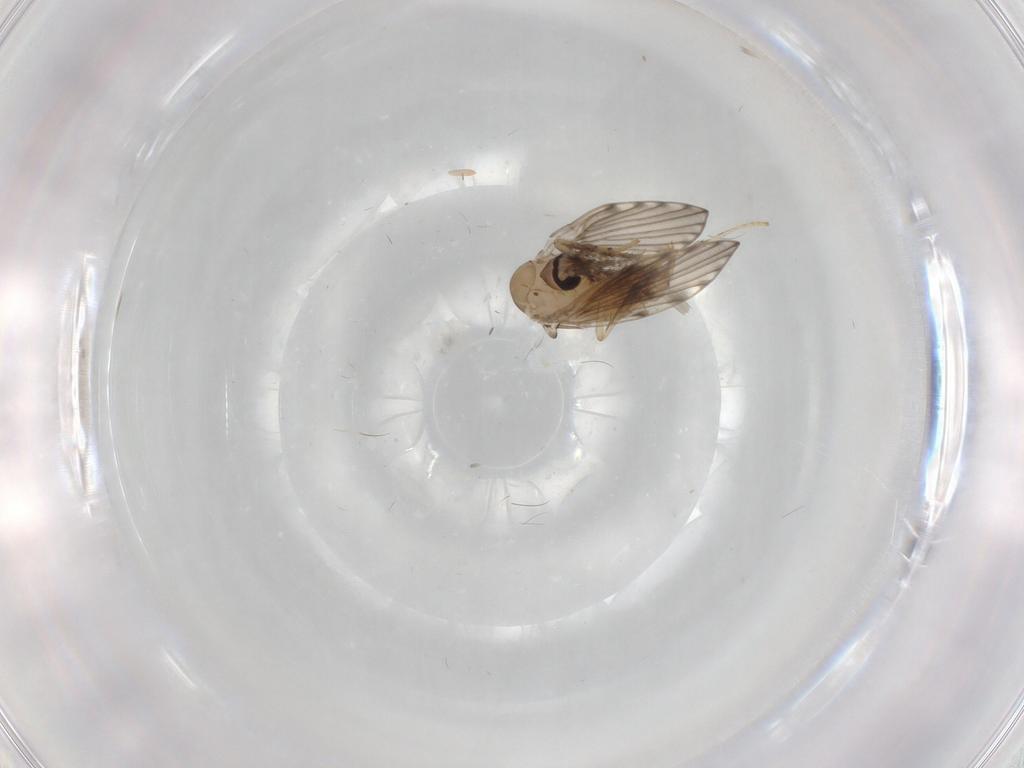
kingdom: Animalia
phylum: Arthropoda
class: Insecta
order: Diptera
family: Psychodidae
